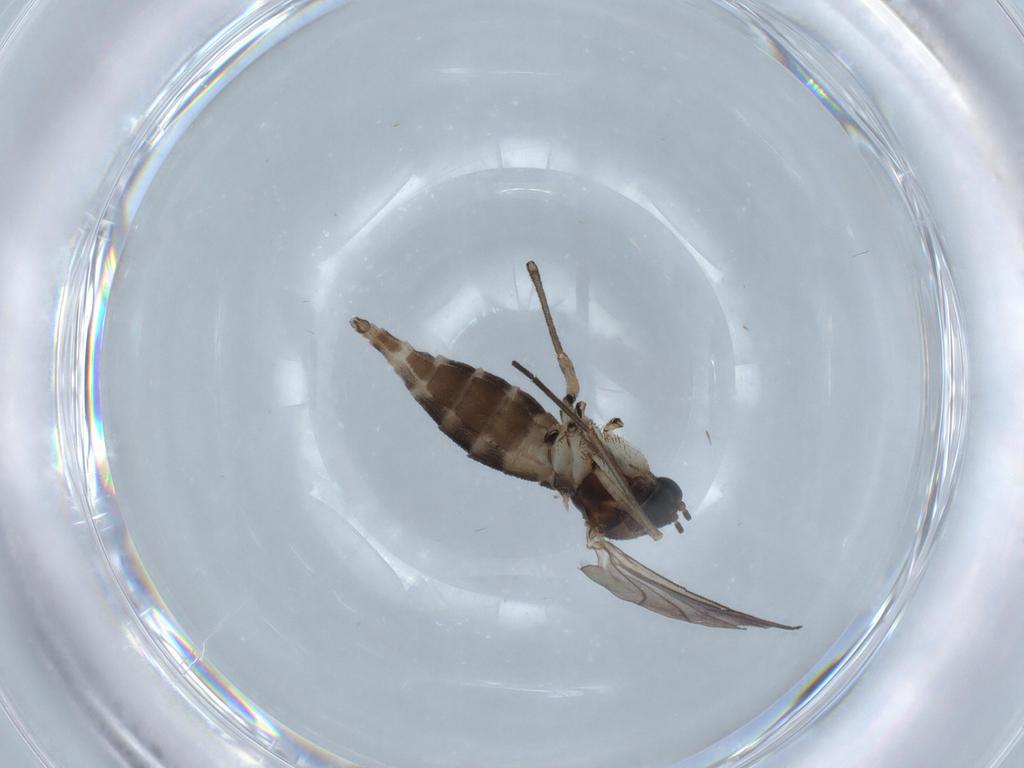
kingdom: Animalia
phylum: Arthropoda
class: Insecta
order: Diptera
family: Sciaridae
